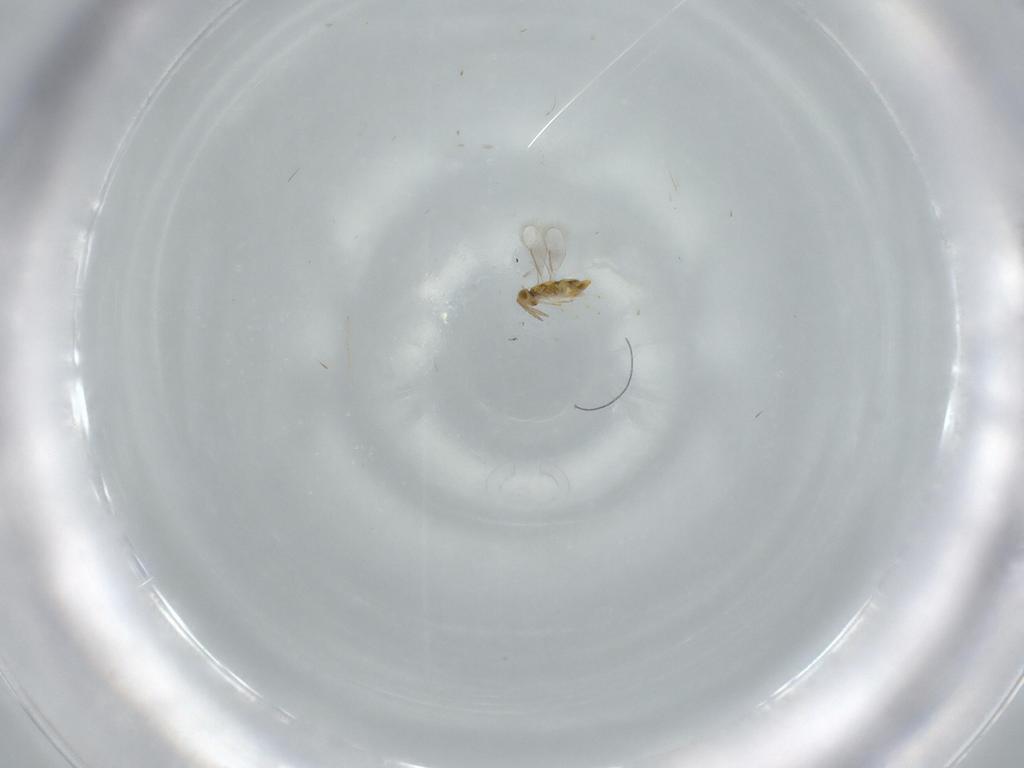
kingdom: Animalia
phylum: Arthropoda
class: Insecta
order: Hymenoptera
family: Aphelinidae
